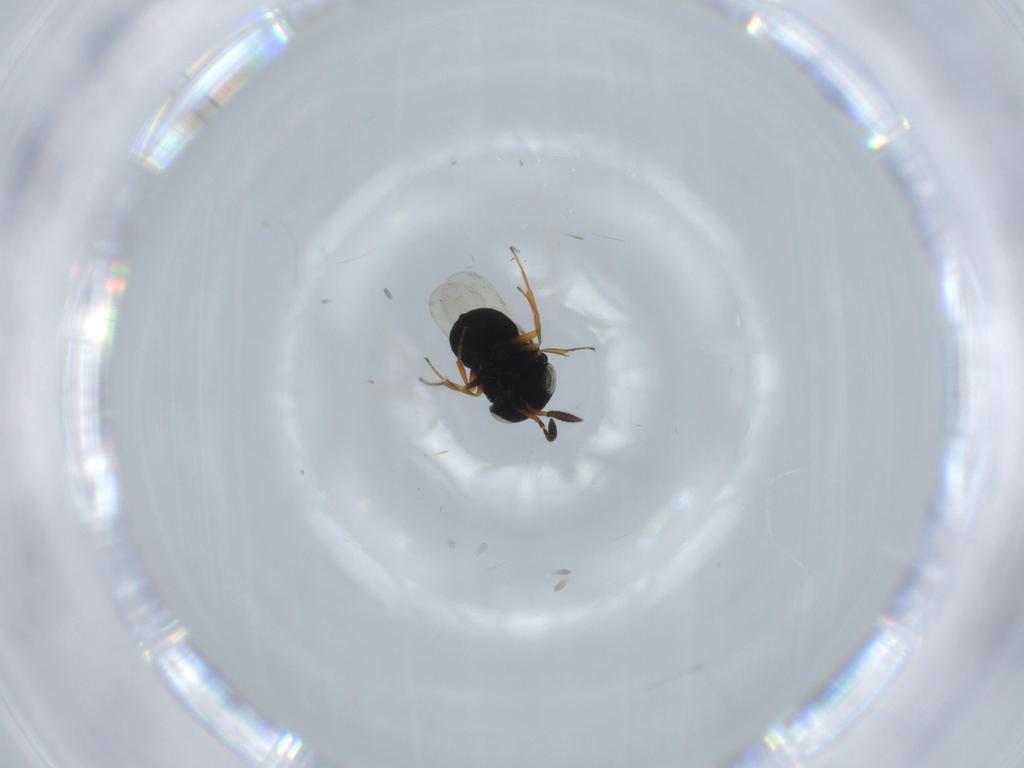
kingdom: Animalia
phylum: Arthropoda
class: Insecta
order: Hymenoptera
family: Scelionidae
